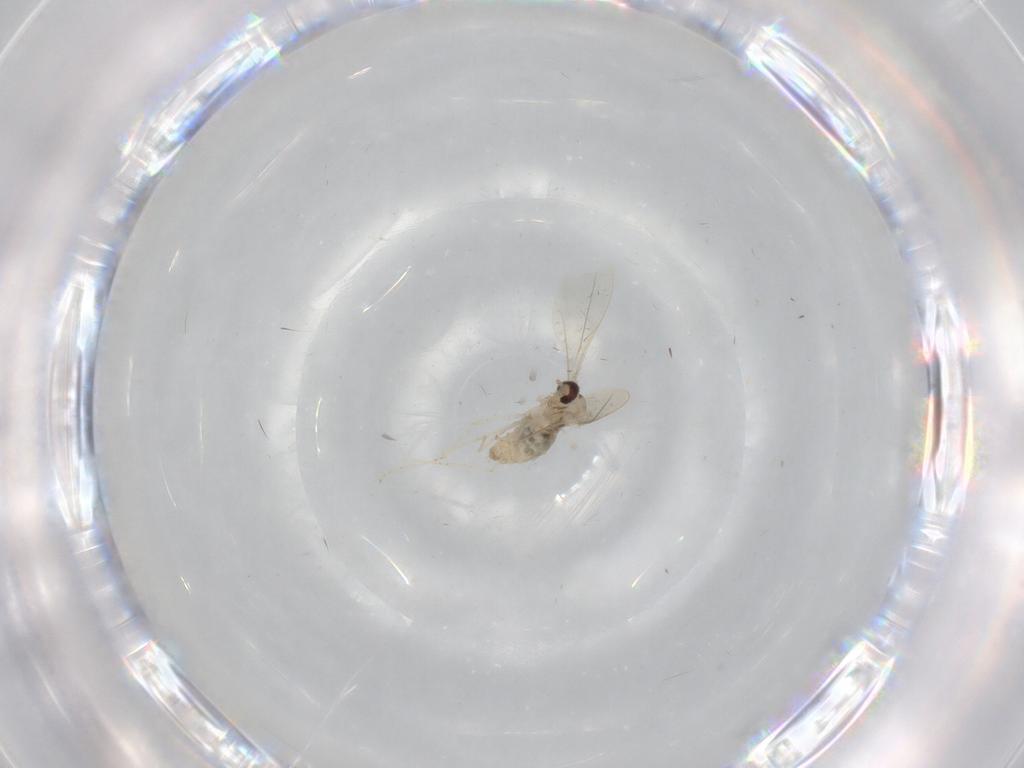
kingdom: Animalia
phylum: Arthropoda
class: Insecta
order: Diptera
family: Cecidomyiidae
